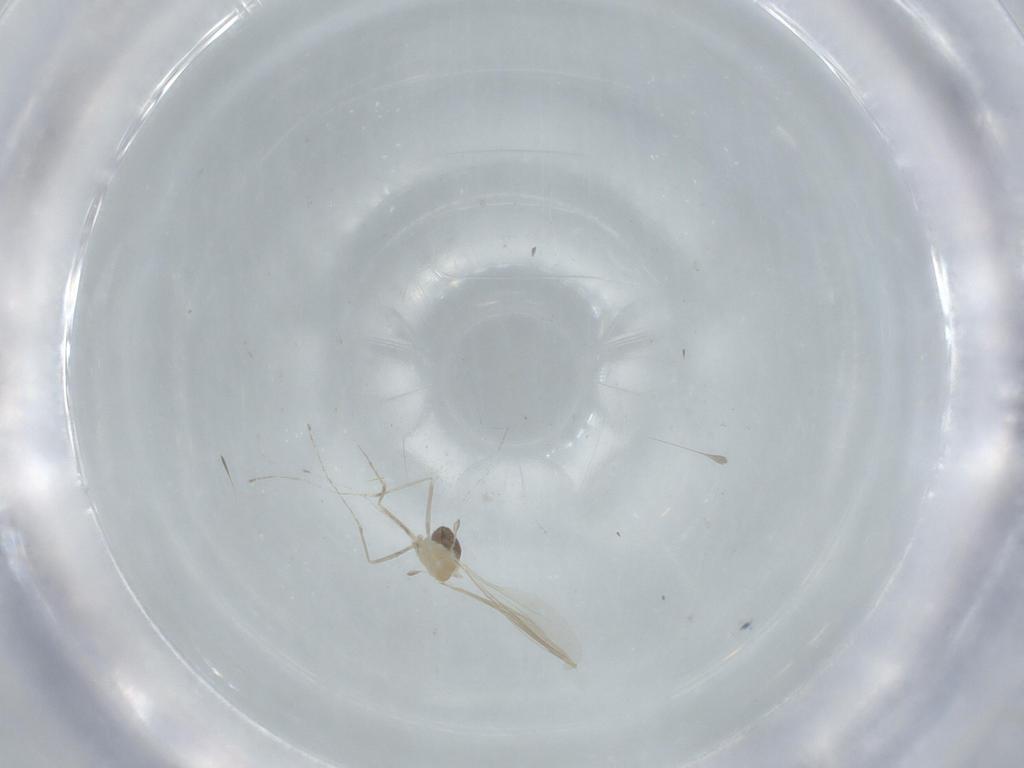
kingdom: Animalia
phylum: Arthropoda
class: Insecta
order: Diptera
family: Cecidomyiidae
